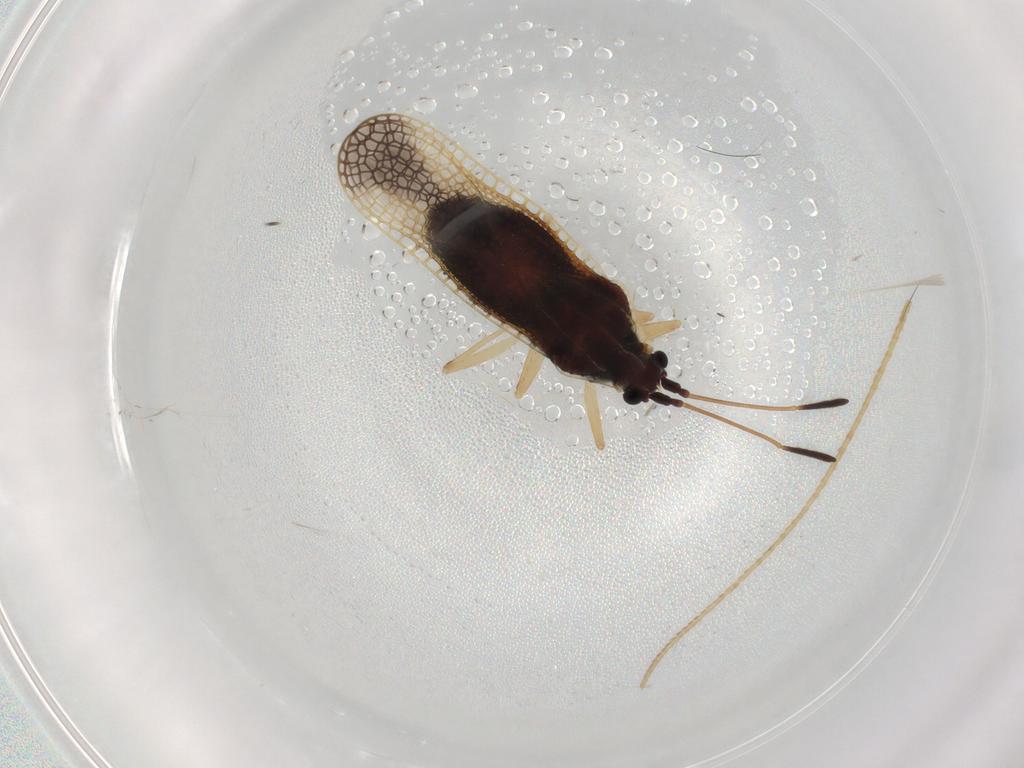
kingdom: Animalia
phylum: Arthropoda
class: Insecta
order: Hemiptera
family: Tingidae
